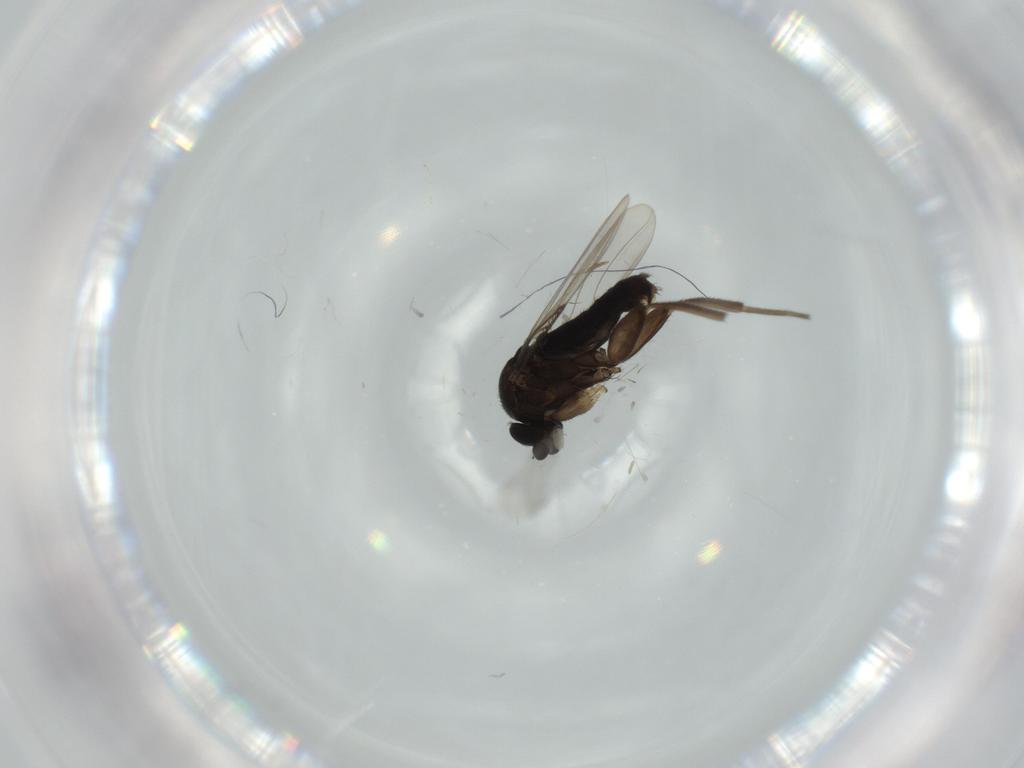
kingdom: Animalia
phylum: Arthropoda
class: Insecta
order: Diptera
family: Phoridae
